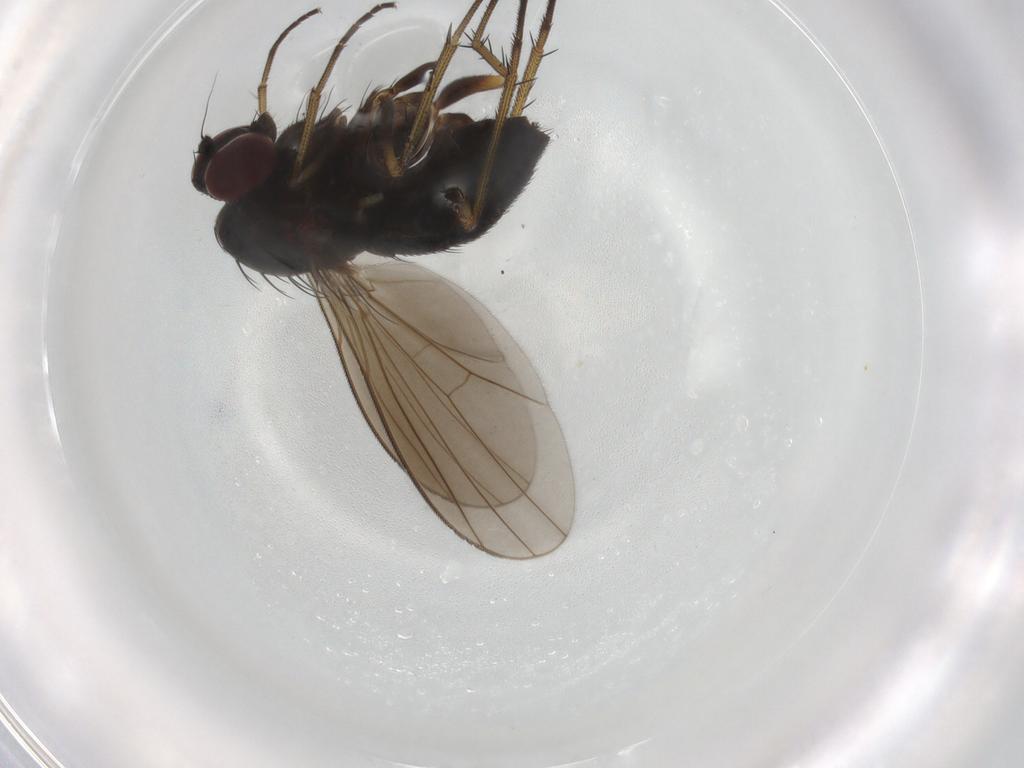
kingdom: Animalia
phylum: Arthropoda
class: Insecta
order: Diptera
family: Dolichopodidae
